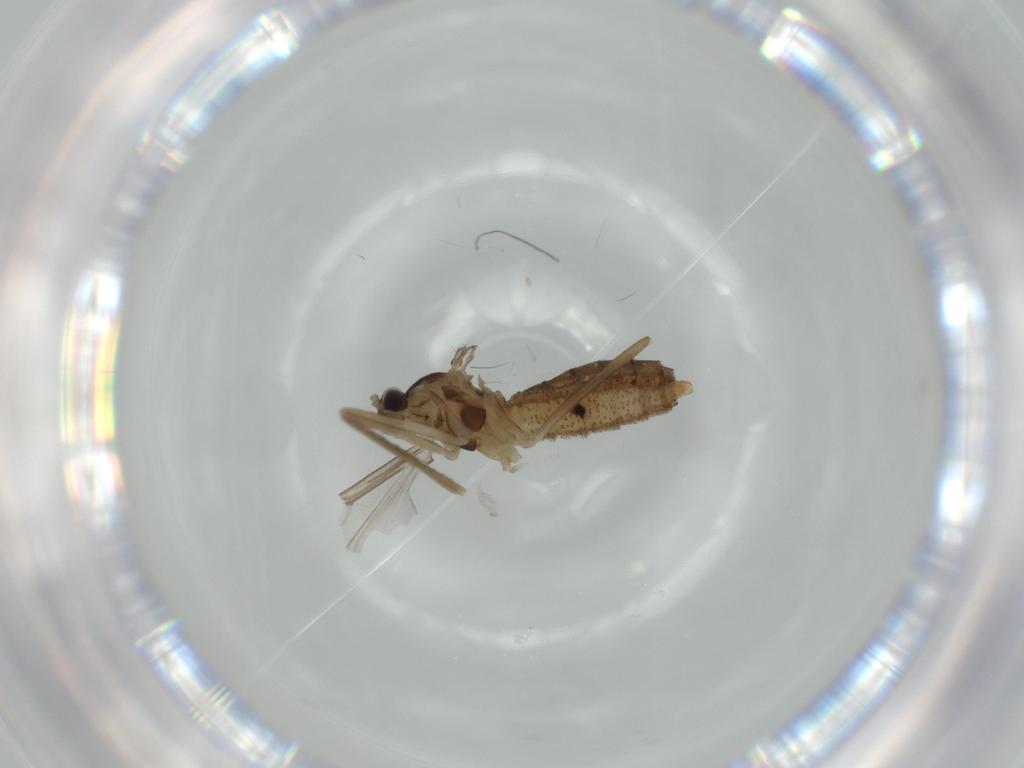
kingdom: Animalia
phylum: Arthropoda
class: Insecta
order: Diptera
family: Cecidomyiidae
